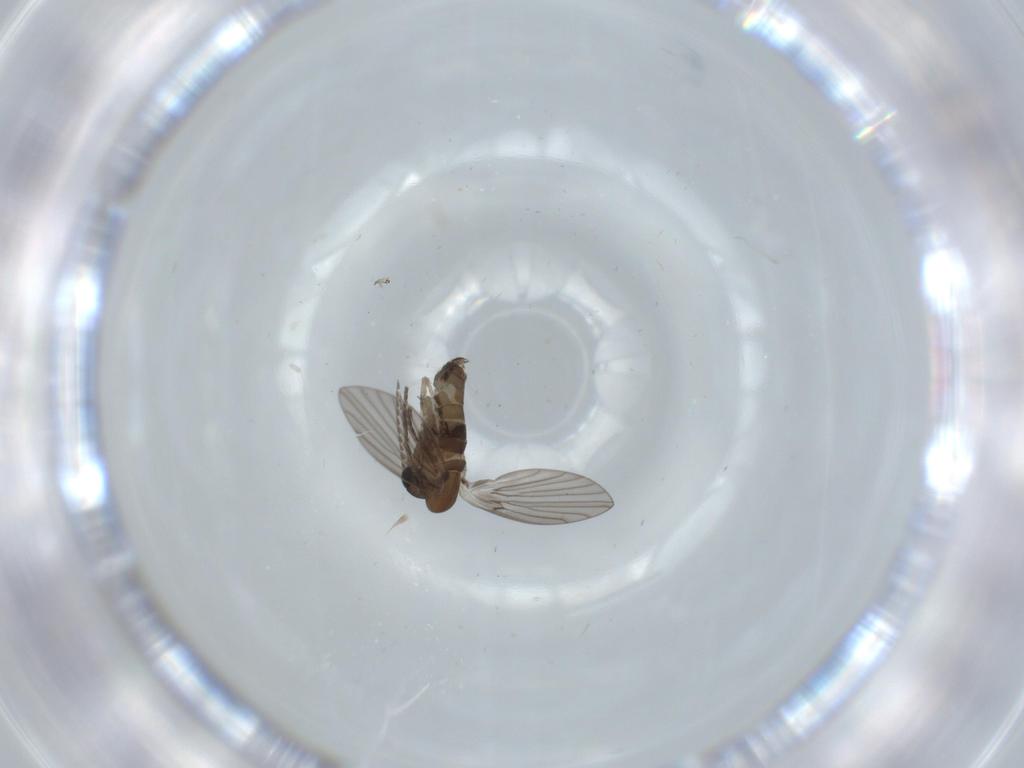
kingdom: Animalia
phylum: Arthropoda
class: Insecta
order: Diptera
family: Psychodidae
